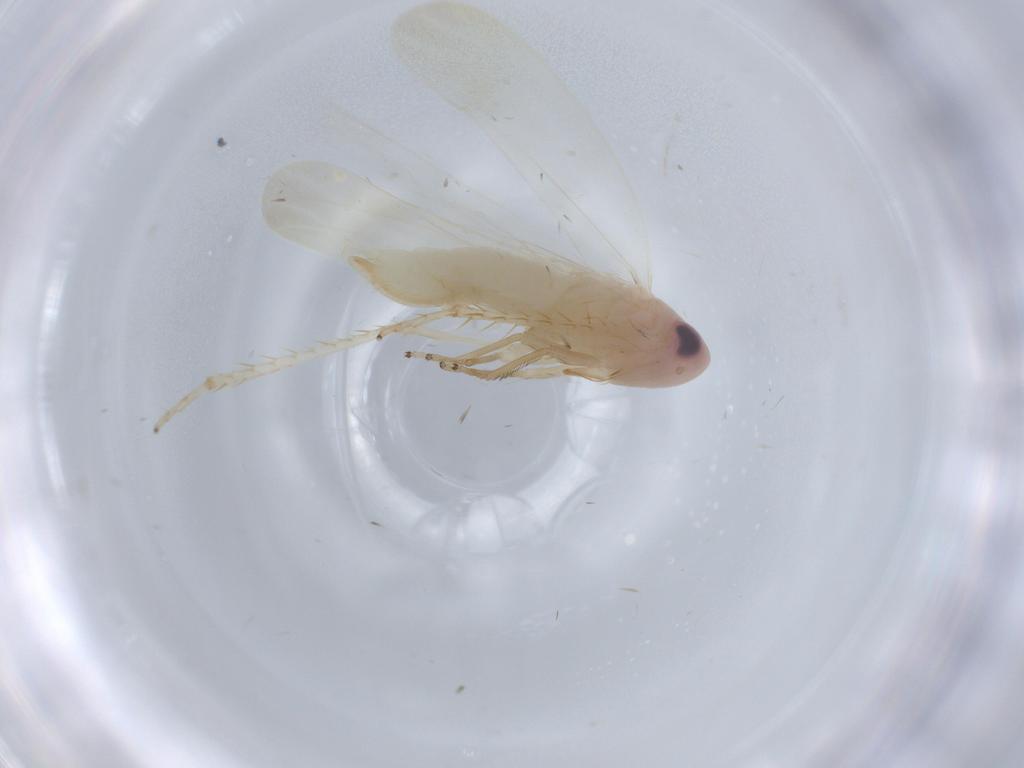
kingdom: Animalia
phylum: Arthropoda
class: Insecta
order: Hemiptera
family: Cicadellidae
